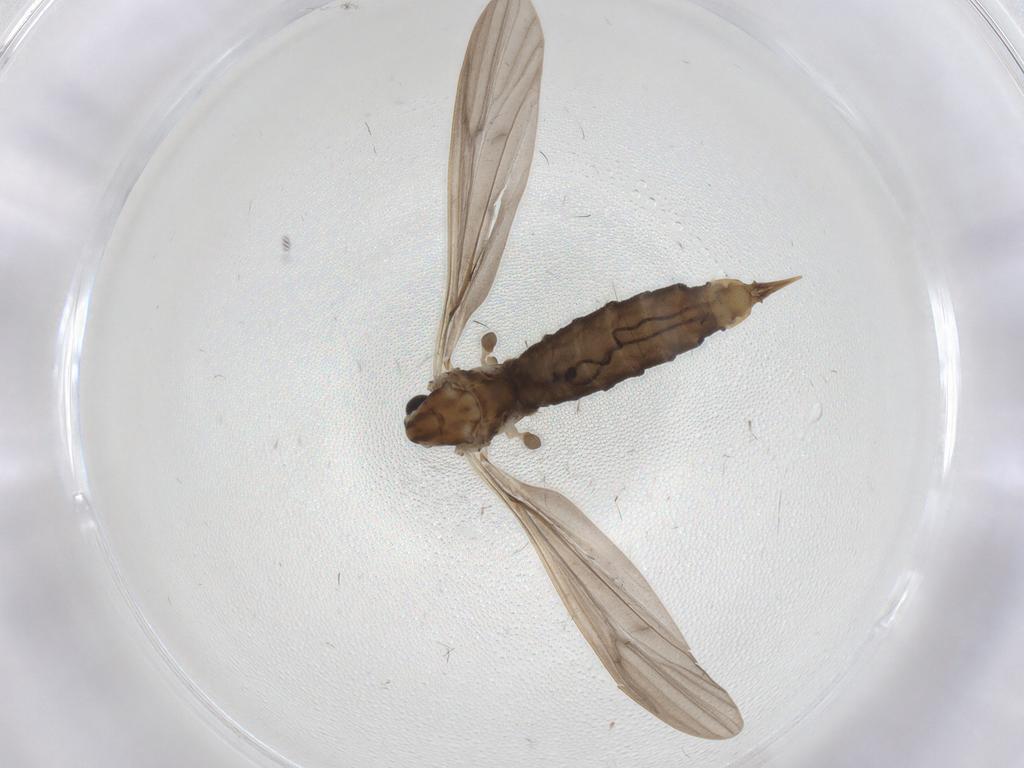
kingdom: Animalia
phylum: Arthropoda
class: Insecta
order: Diptera
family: Limoniidae
